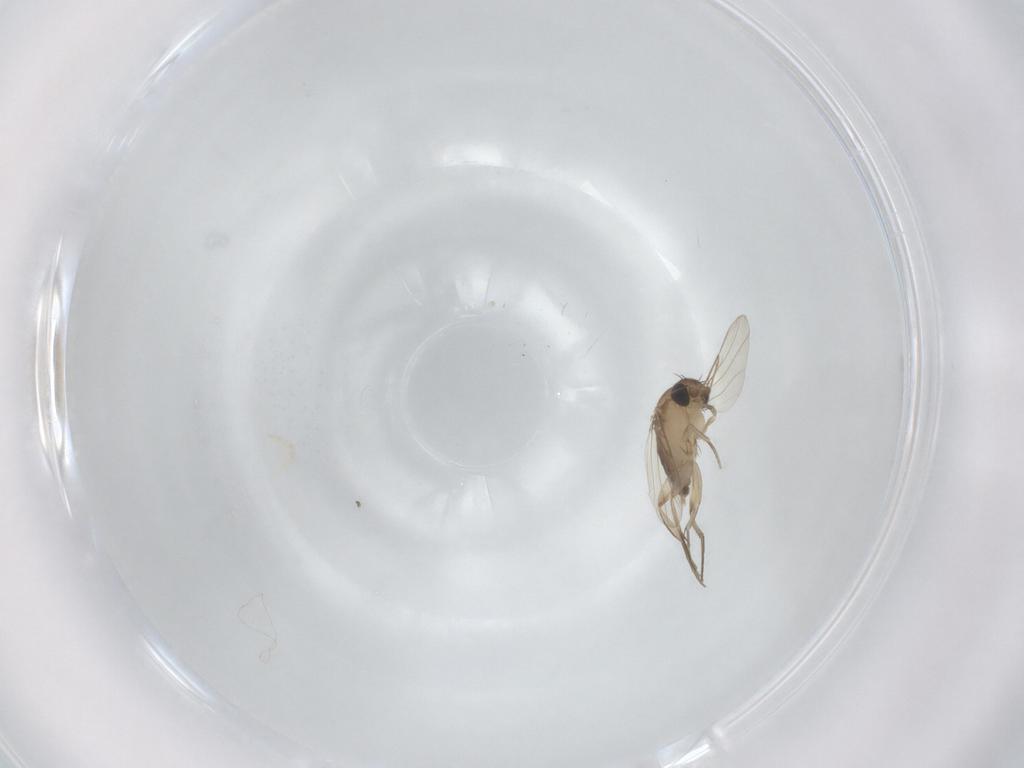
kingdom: Animalia
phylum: Arthropoda
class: Insecta
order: Diptera
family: Phoridae
